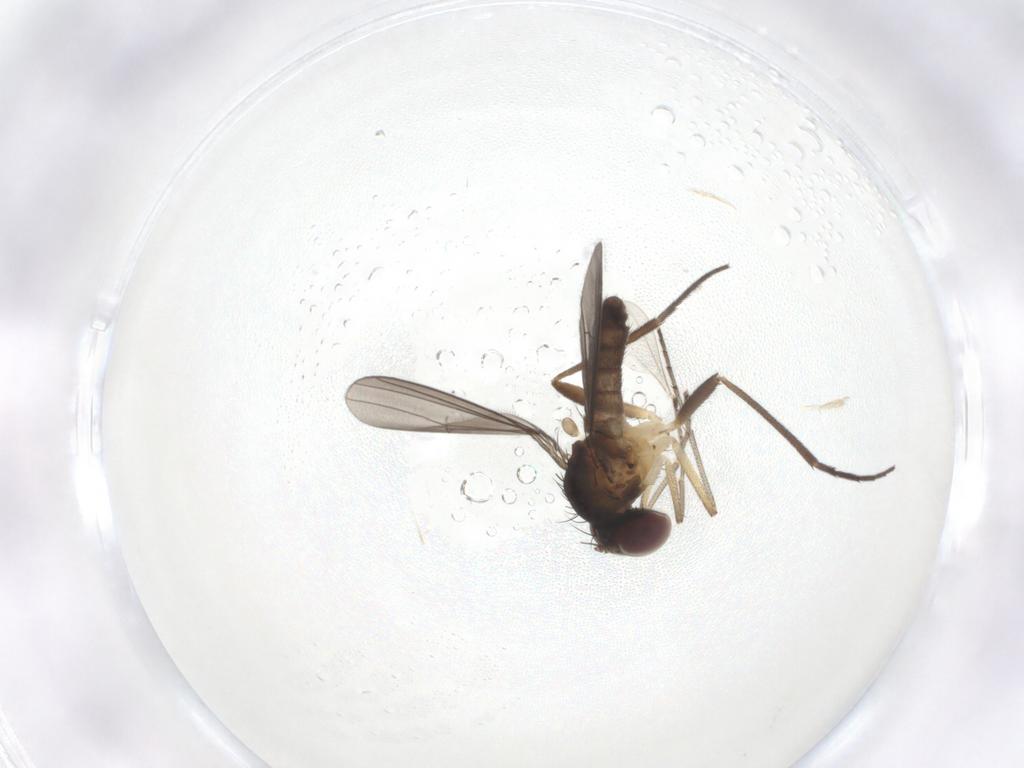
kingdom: Animalia
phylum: Arthropoda
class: Insecta
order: Diptera
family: Dolichopodidae
